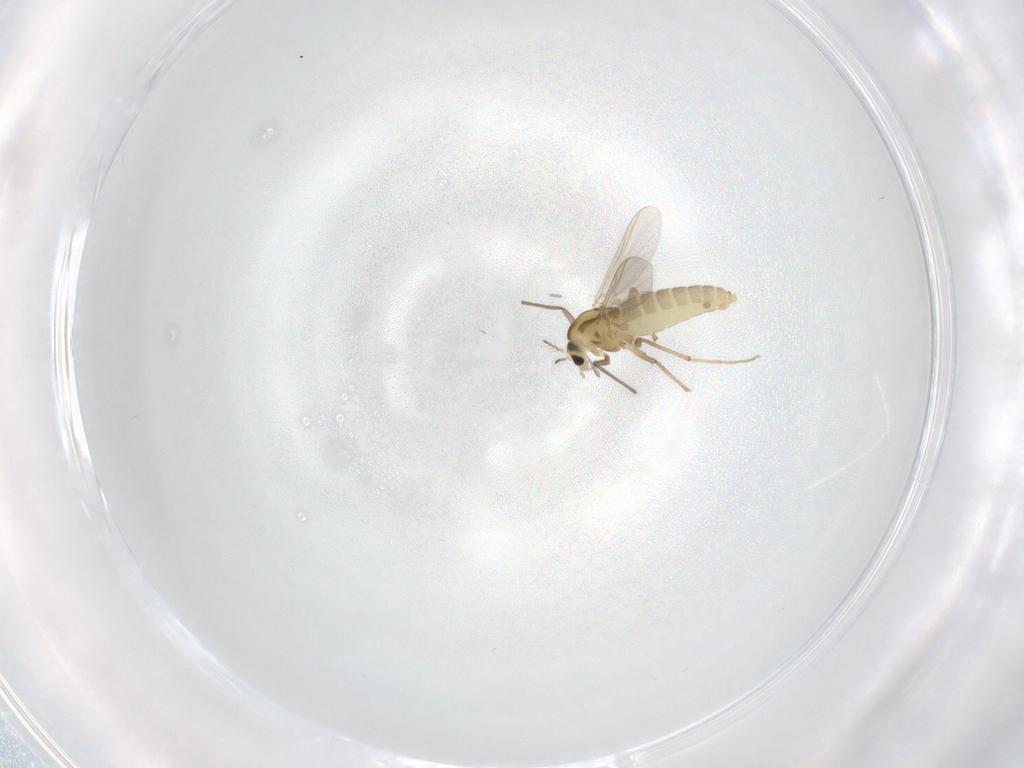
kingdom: Animalia
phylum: Arthropoda
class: Insecta
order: Diptera
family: Chironomidae
